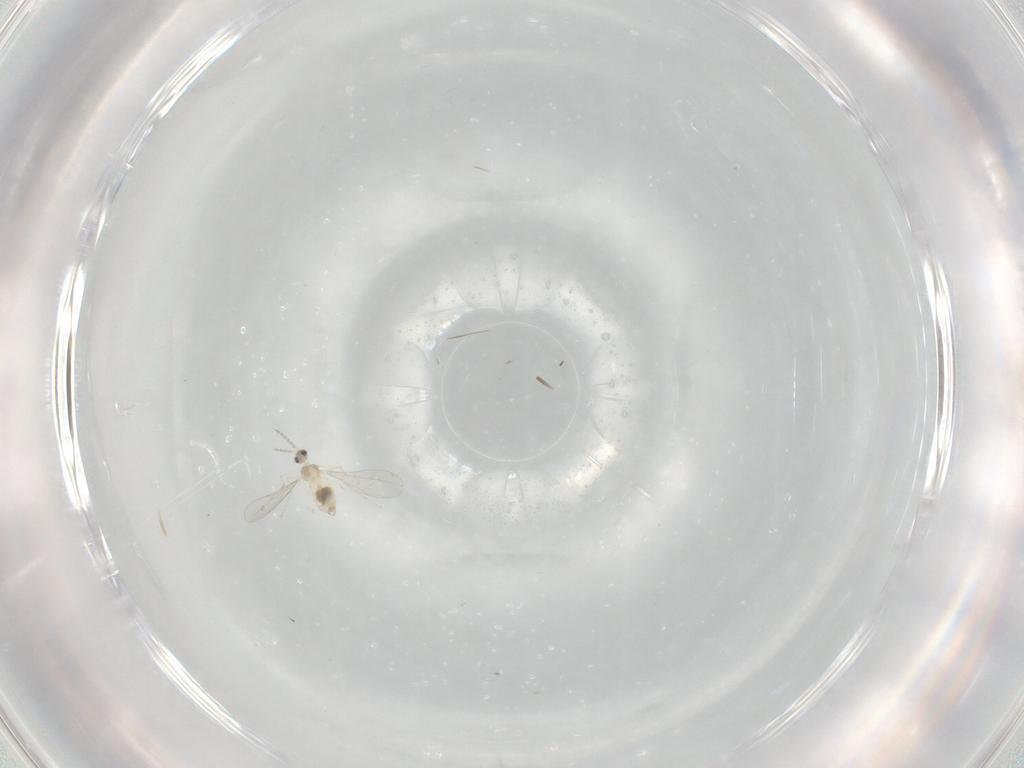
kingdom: Animalia
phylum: Arthropoda
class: Insecta
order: Diptera
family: Cecidomyiidae
